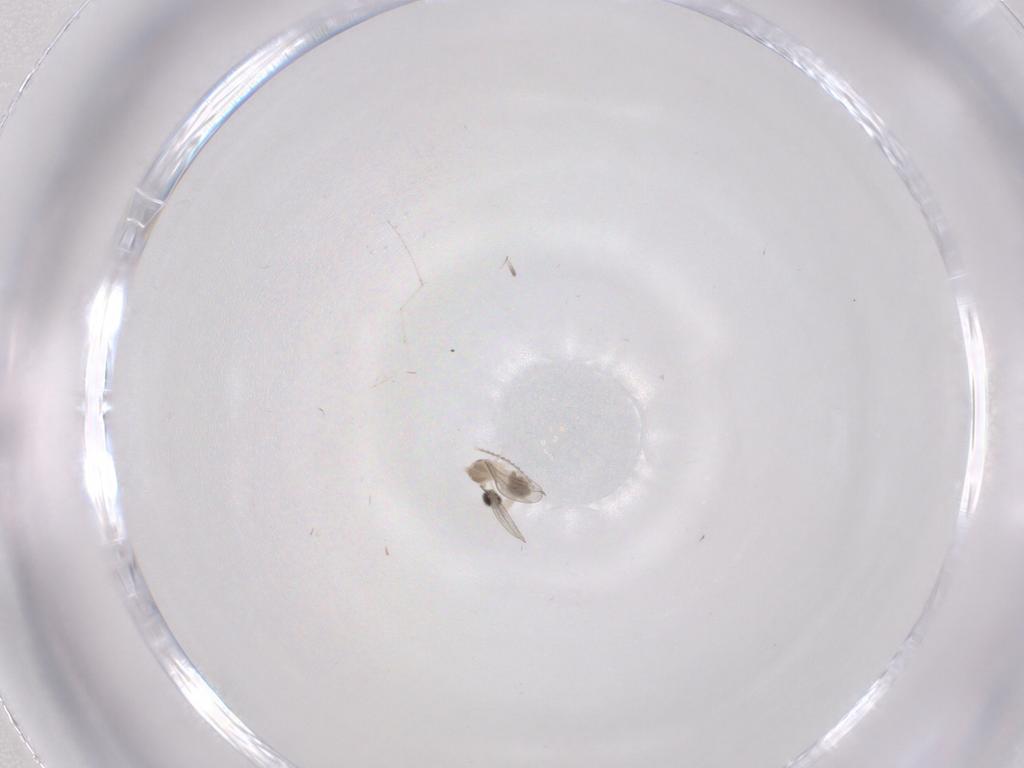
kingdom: Animalia
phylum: Arthropoda
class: Insecta
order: Diptera
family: Cecidomyiidae
